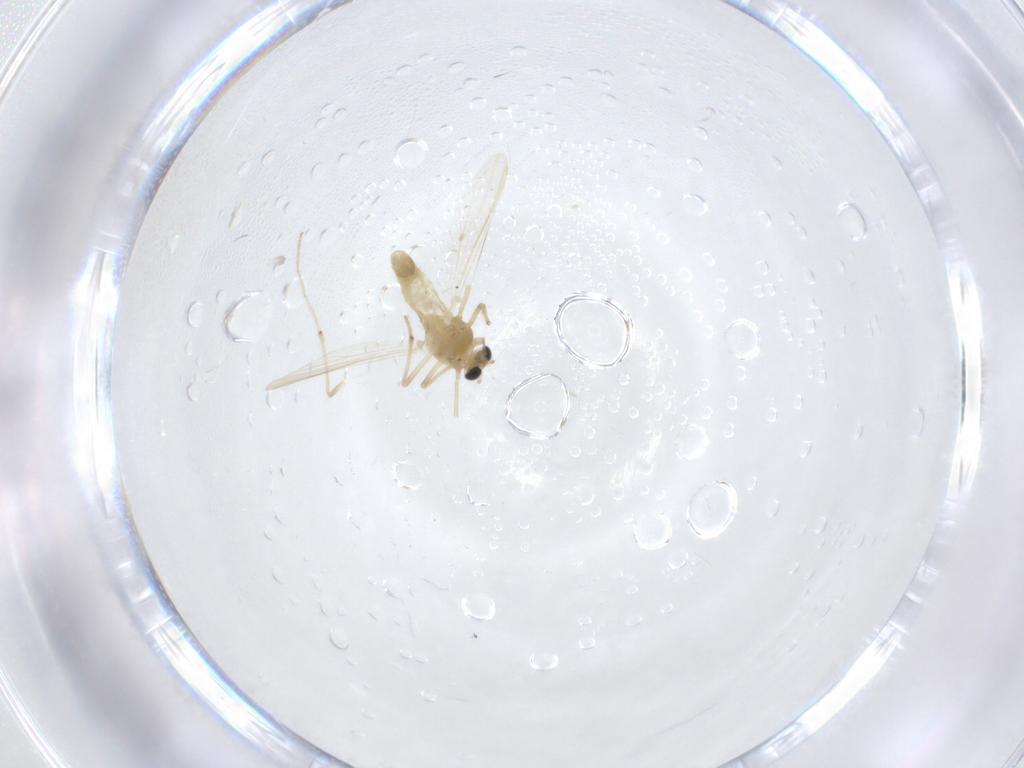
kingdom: Animalia
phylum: Arthropoda
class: Insecta
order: Diptera
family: Chironomidae
